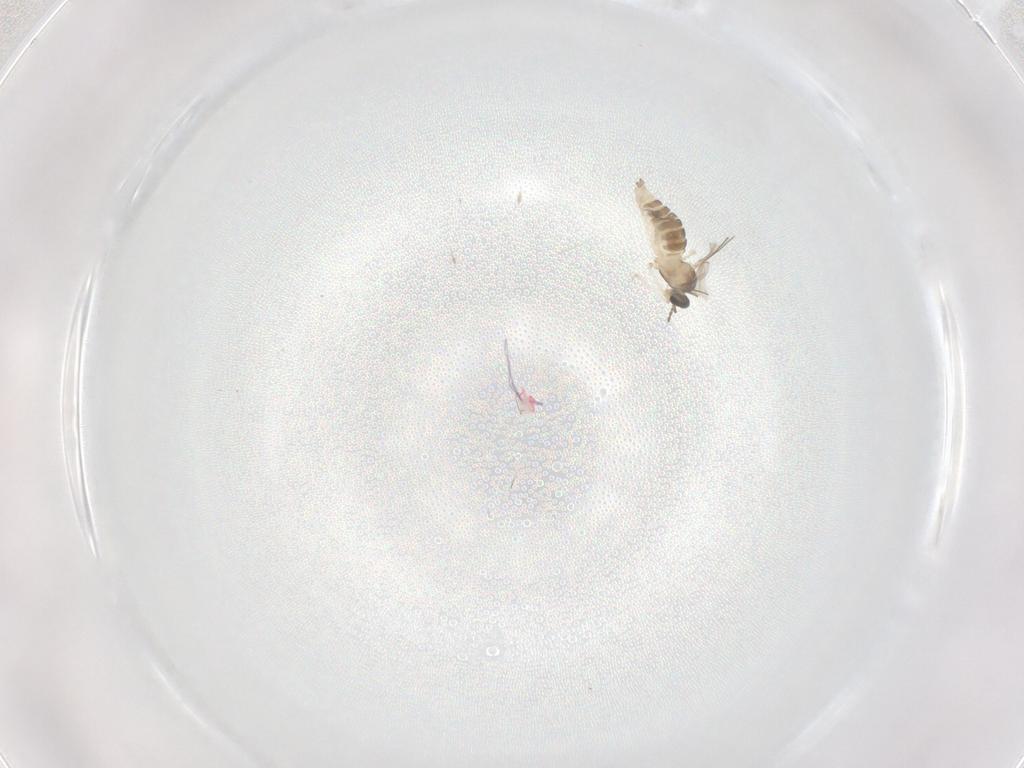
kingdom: Animalia
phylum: Arthropoda
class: Insecta
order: Diptera
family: Cecidomyiidae
